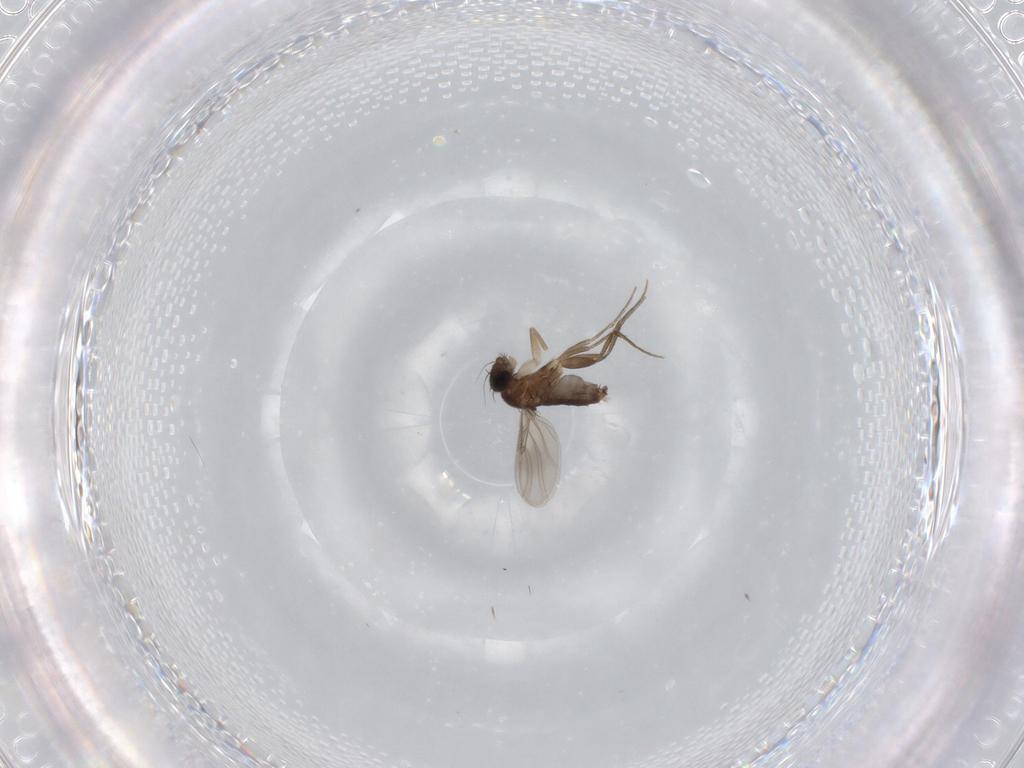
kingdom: Animalia
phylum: Arthropoda
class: Insecta
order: Diptera
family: Phoridae
